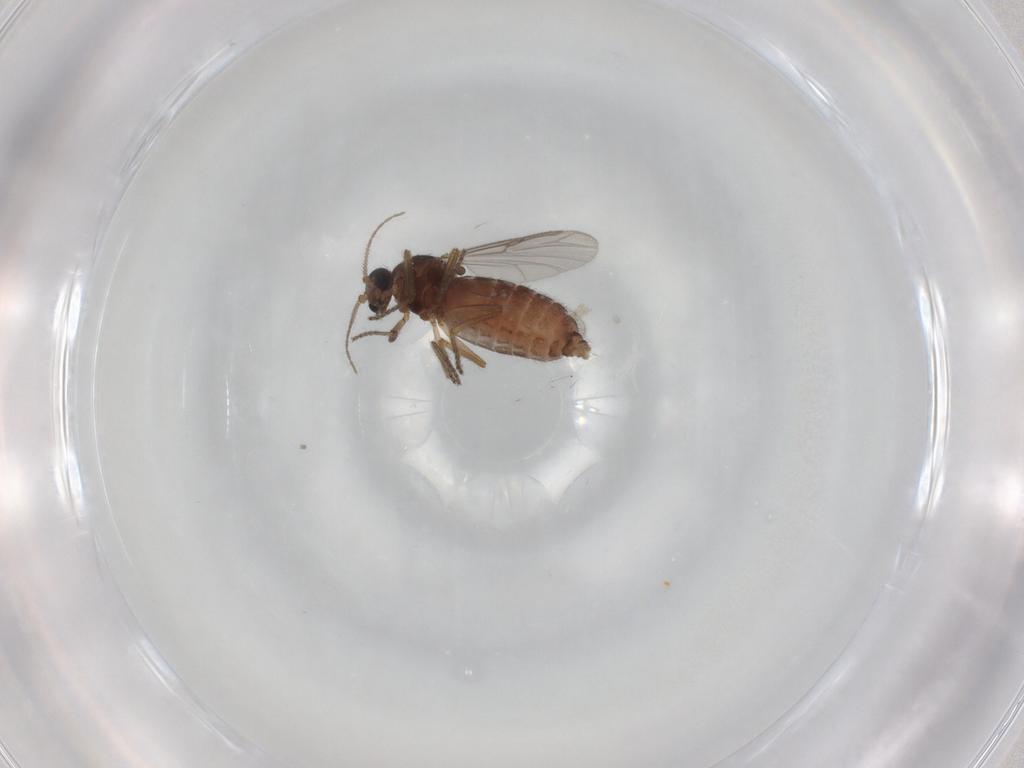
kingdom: Animalia
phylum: Arthropoda
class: Insecta
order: Diptera
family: Ceratopogonidae
